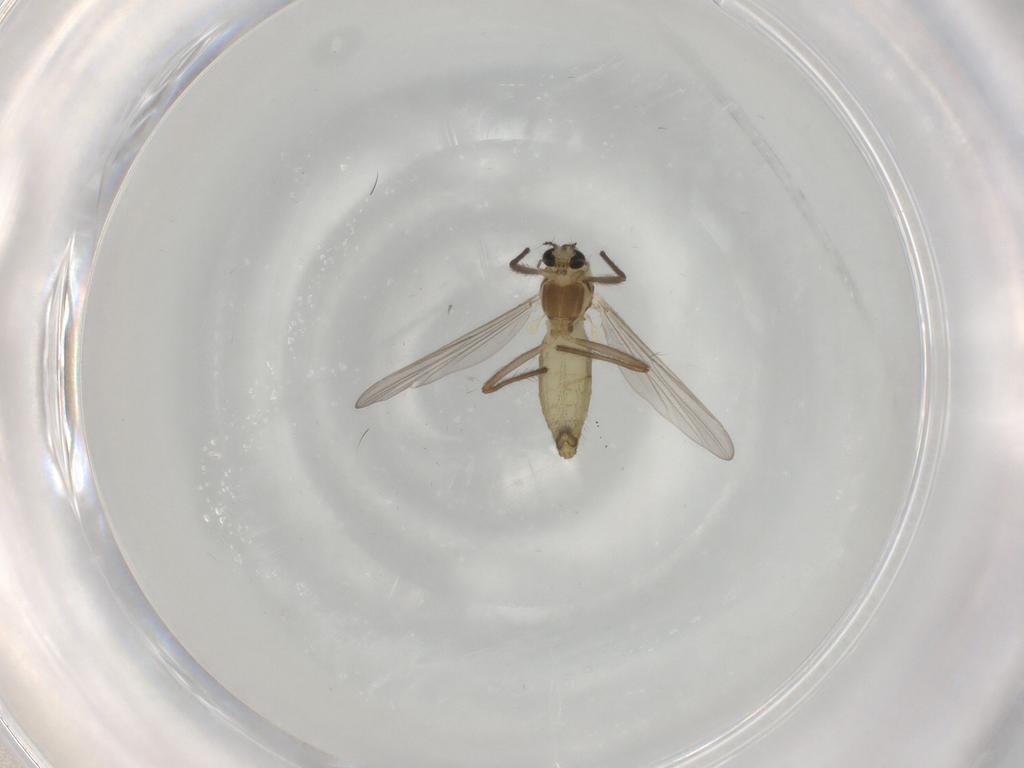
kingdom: Animalia
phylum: Arthropoda
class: Insecta
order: Diptera
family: Chironomidae
